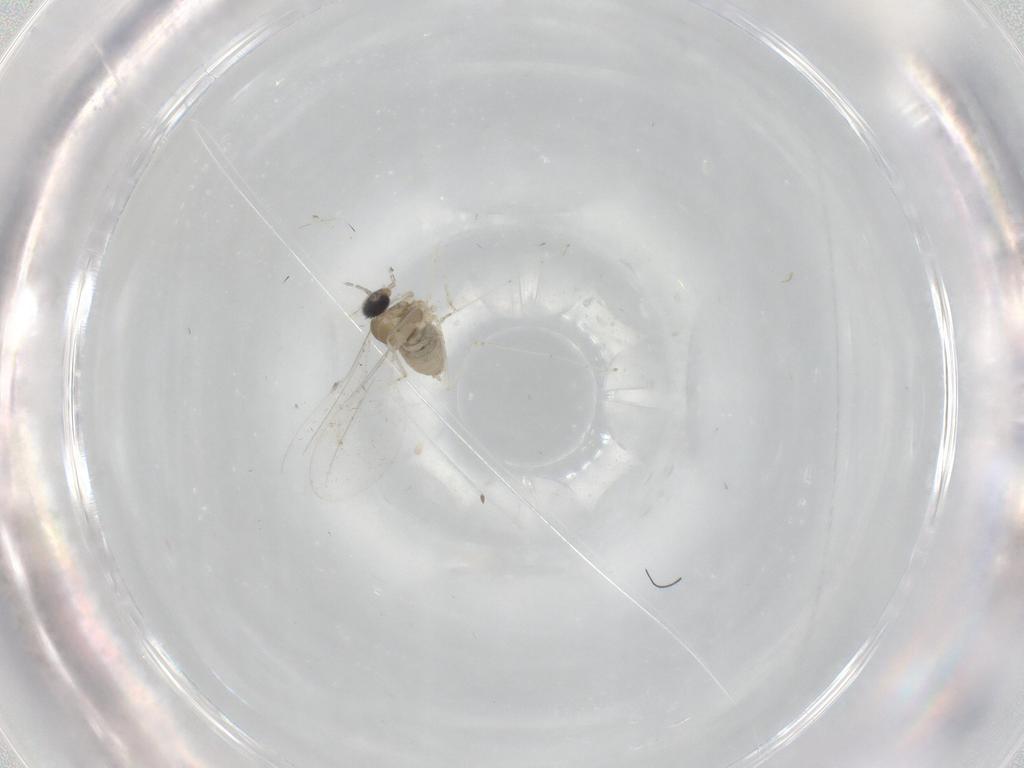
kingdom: Animalia
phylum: Arthropoda
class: Insecta
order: Diptera
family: Cecidomyiidae
